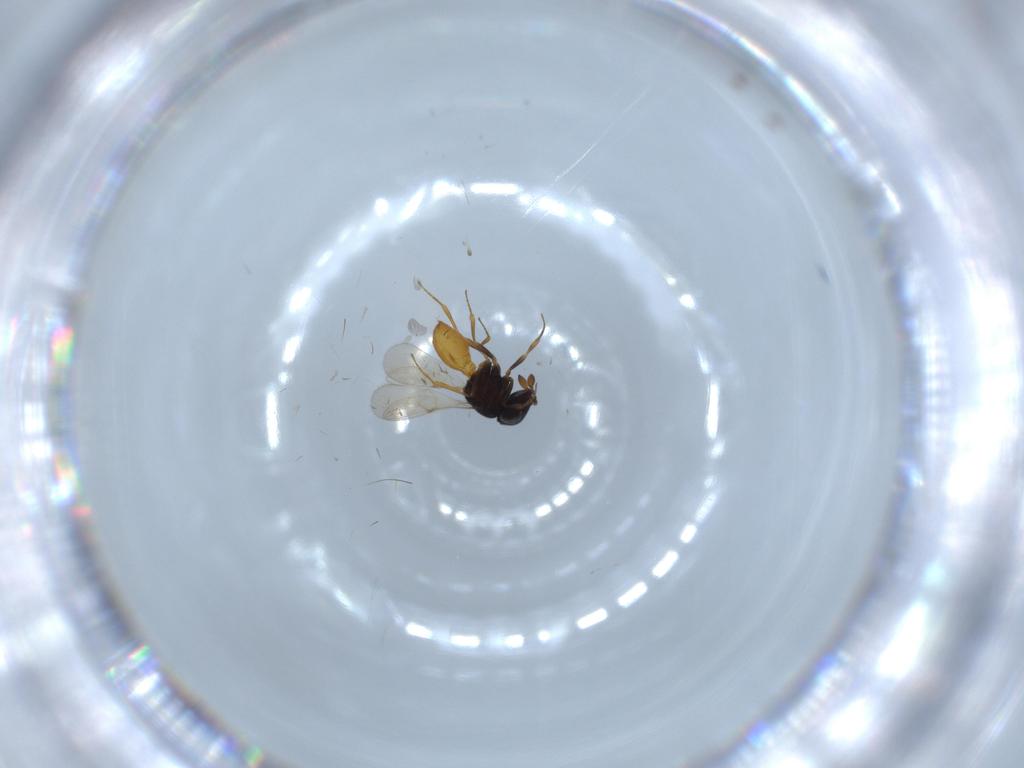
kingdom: Animalia
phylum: Arthropoda
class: Insecta
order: Hymenoptera
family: Scelionidae
